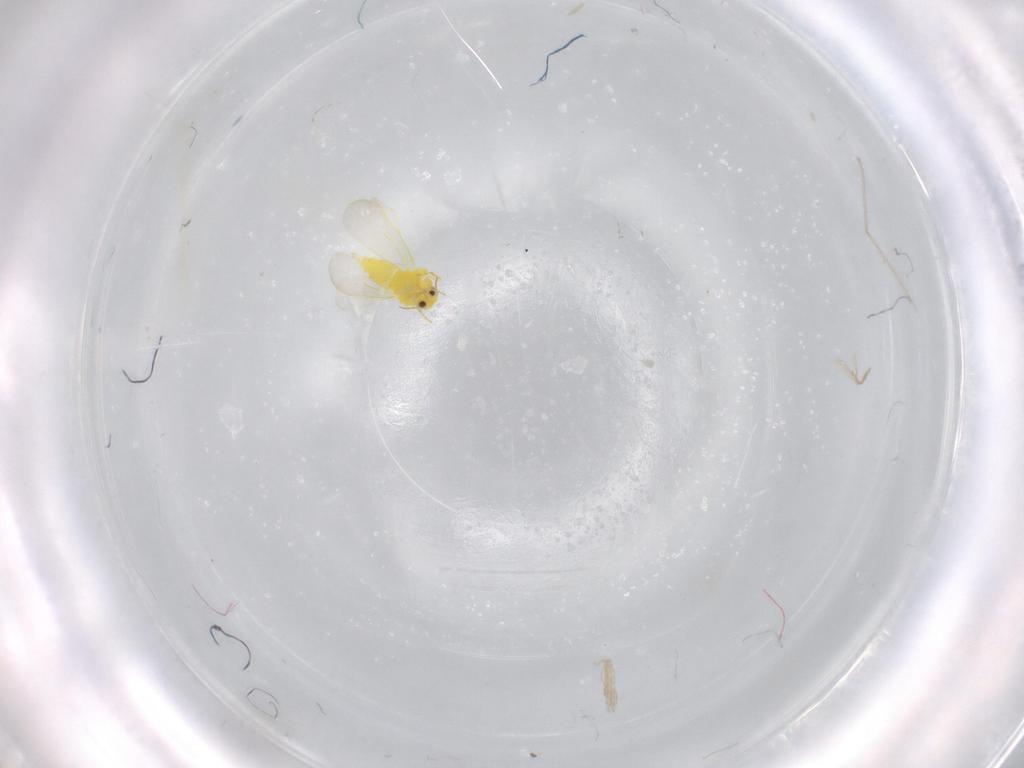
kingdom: Animalia
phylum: Arthropoda
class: Insecta
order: Hemiptera
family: Aleyrodidae
